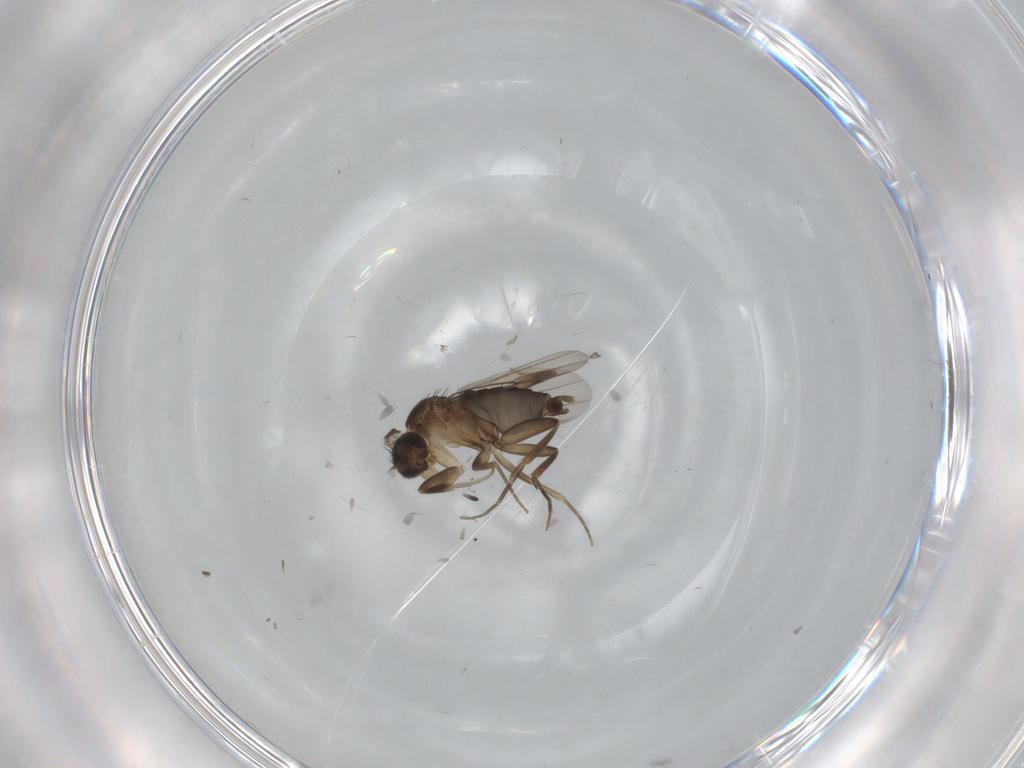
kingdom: Animalia
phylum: Arthropoda
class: Insecta
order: Diptera
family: Phoridae
